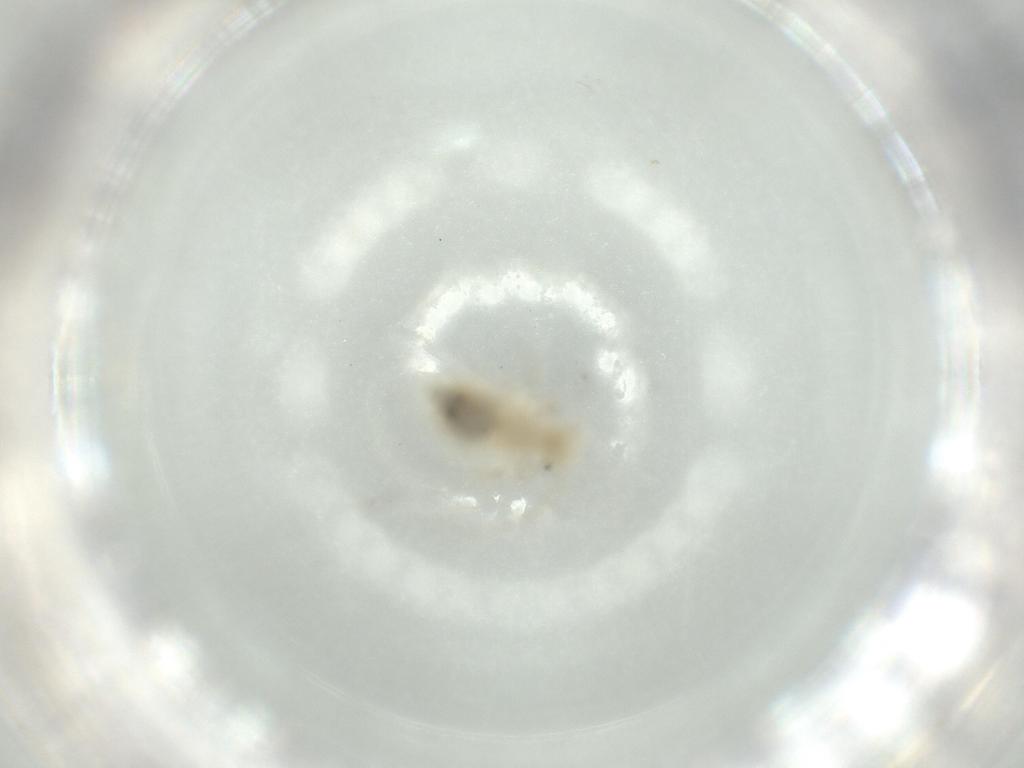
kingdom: Animalia
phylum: Arthropoda
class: Insecta
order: Psocodea
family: Caeciliusidae
